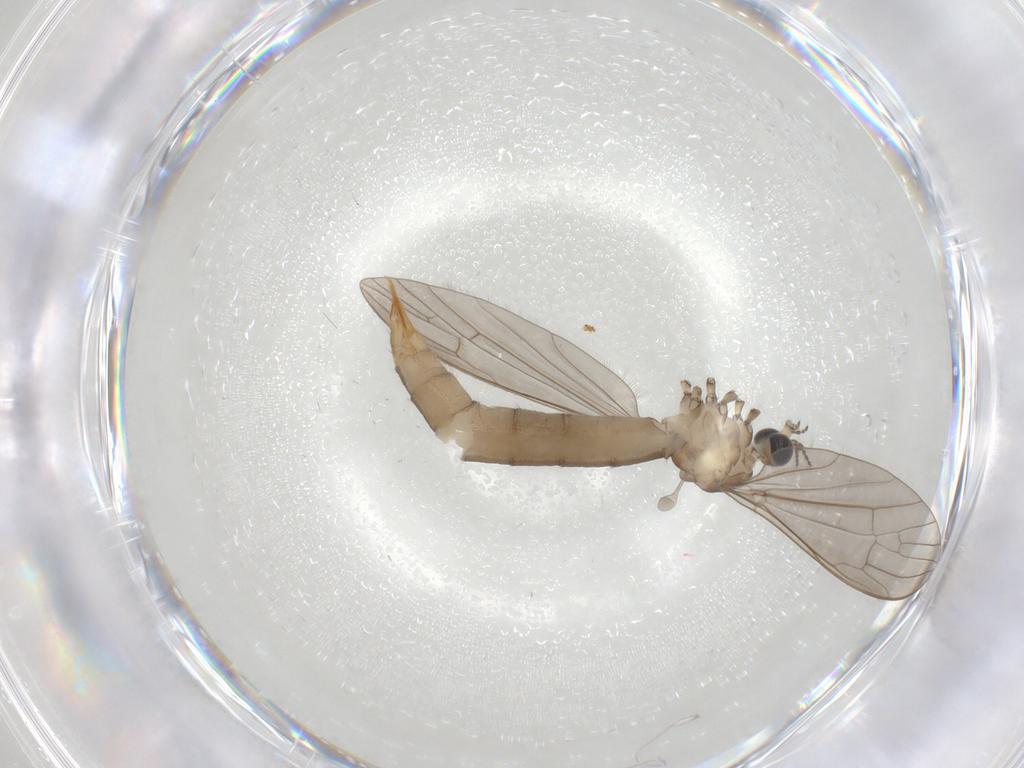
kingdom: Animalia
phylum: Arthropoda
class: Insecta
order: Diptera
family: Limoniidae
